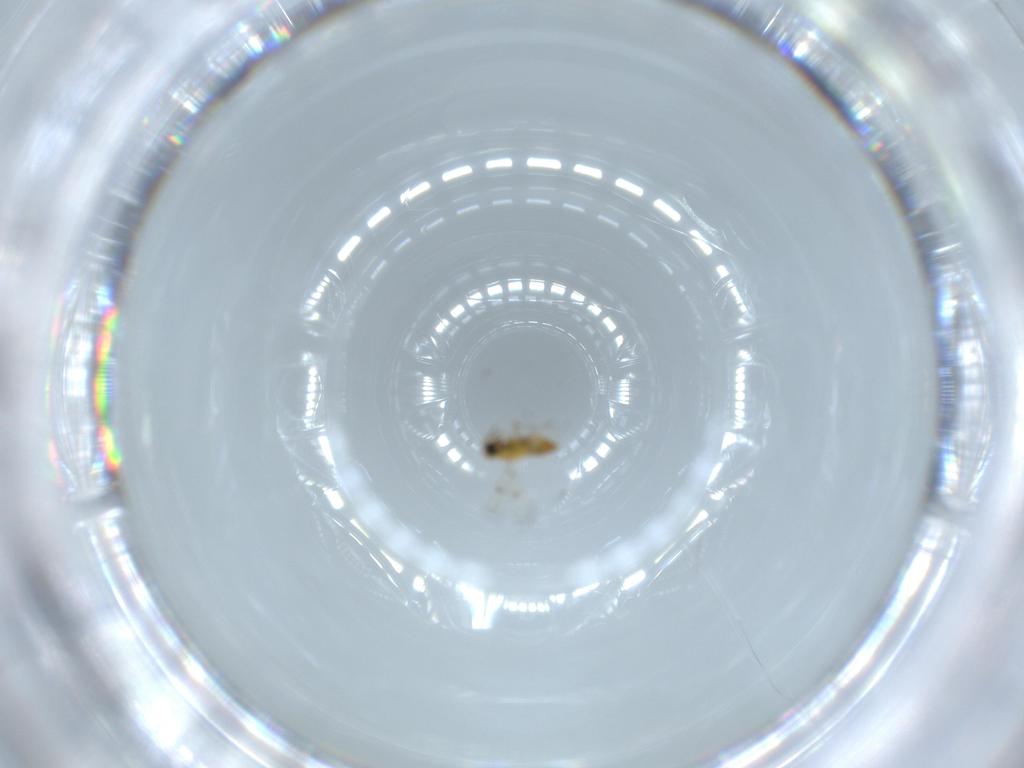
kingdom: Animalia
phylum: Arthropoda
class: Insecta
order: Hymenoptera
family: Trichogrammatidae
